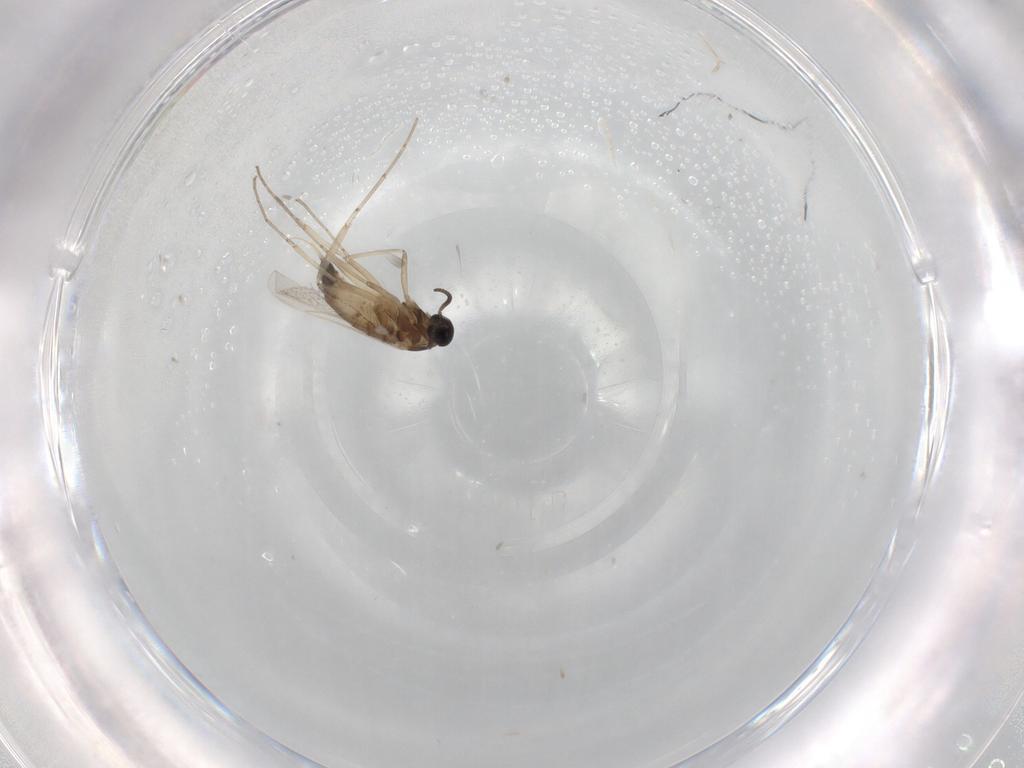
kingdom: Animalia
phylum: Arthropoda
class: Insecta
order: Diptera
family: Cecidomyiidae
